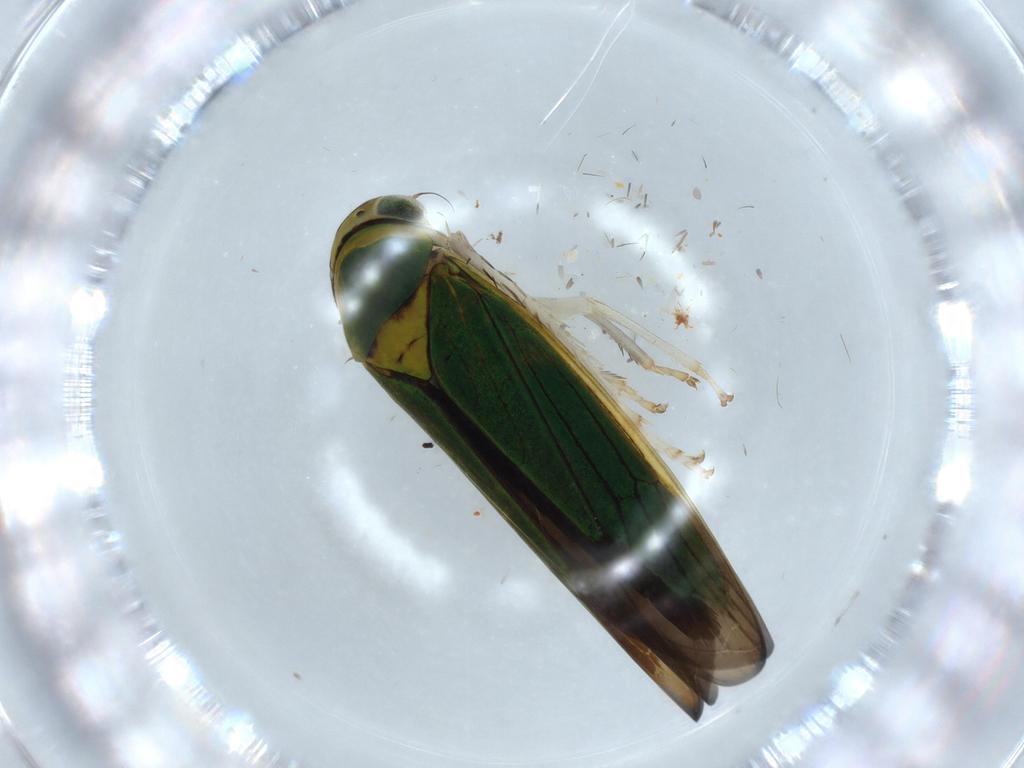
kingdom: Animalia
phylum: Arthropoda
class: Insecta
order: Hemiptera
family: Cicadellidae
